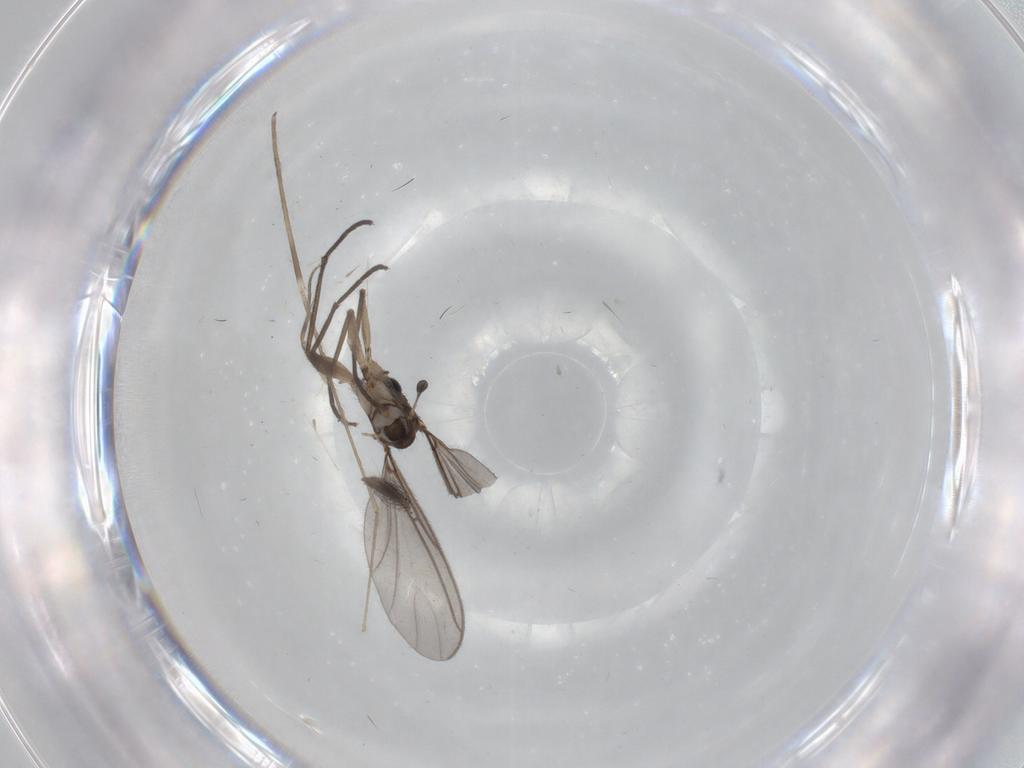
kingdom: Animalia
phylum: Arthropoda
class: Insecta
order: Diptera
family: Sciaridae
